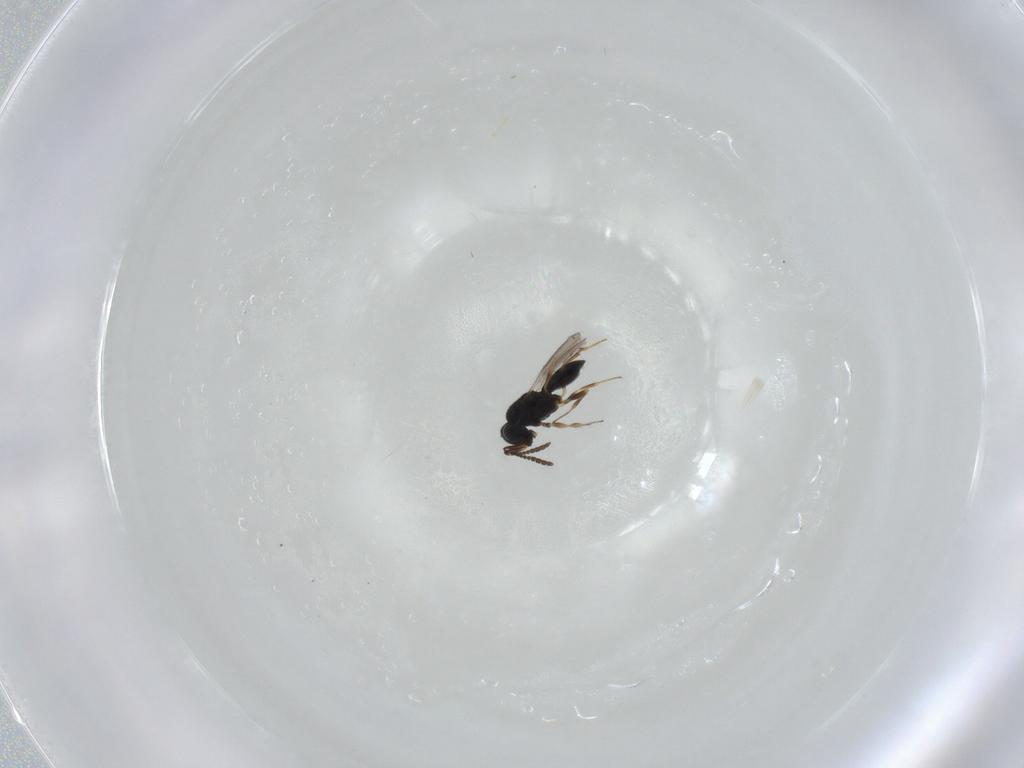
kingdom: Animalia
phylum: Arthropoda
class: Insecta
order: Hymenoptera
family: Scelionidae
